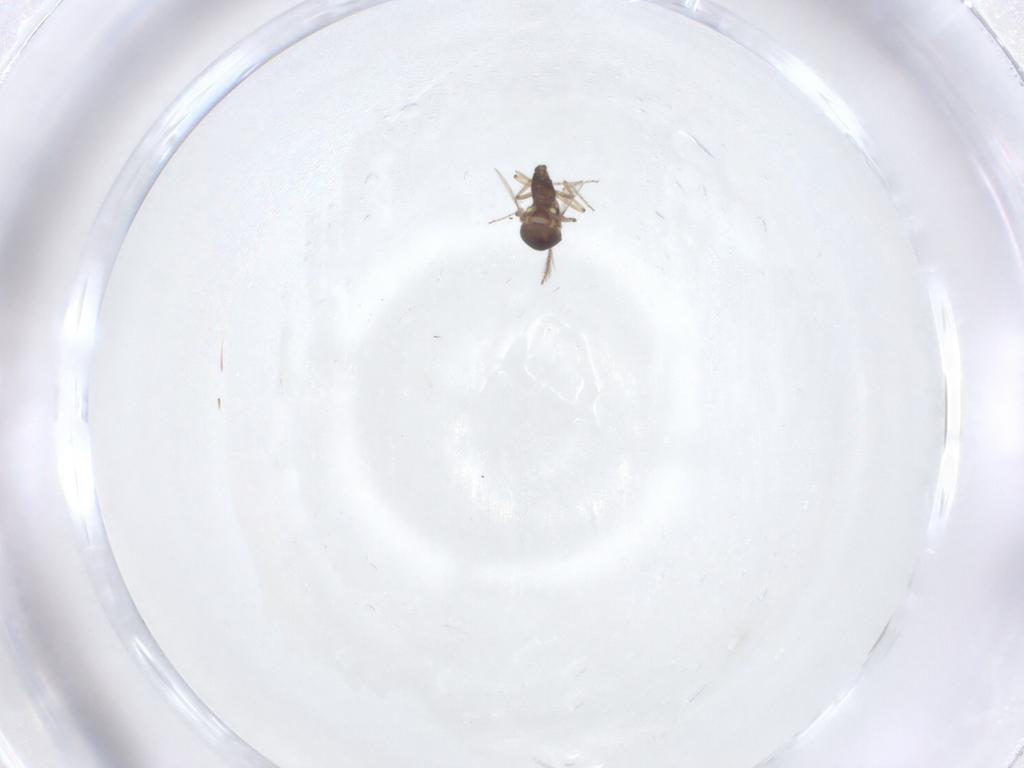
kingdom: Animalia
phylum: Arthropoda
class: Insecta
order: Diptera
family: Ceratopogonidae
